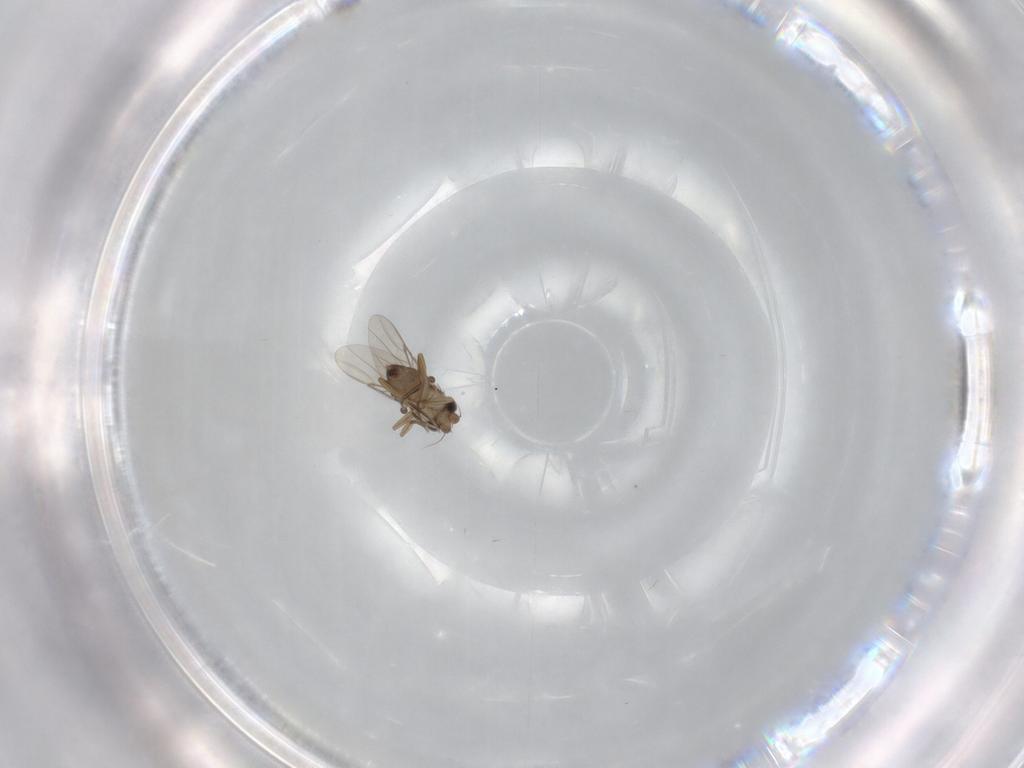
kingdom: Animalia
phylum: Arthropoda
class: Insecta
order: Diptera
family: Phoridae
